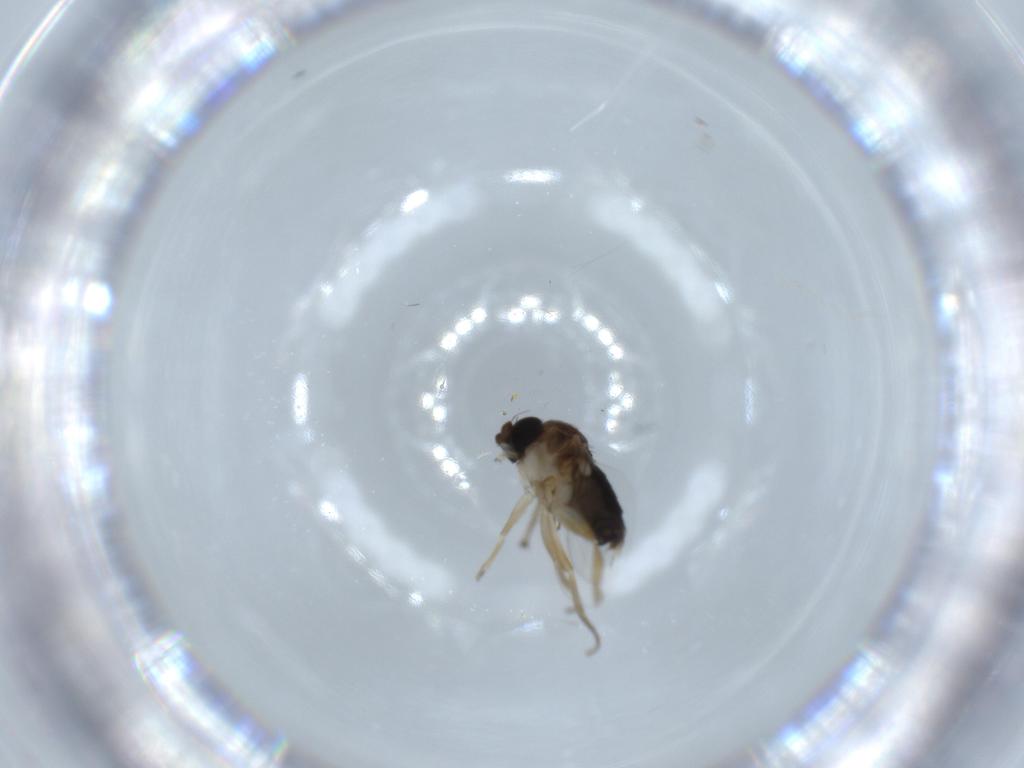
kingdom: Animalia
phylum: Arthropoda
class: Insecta
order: Diptera
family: Phoridae
